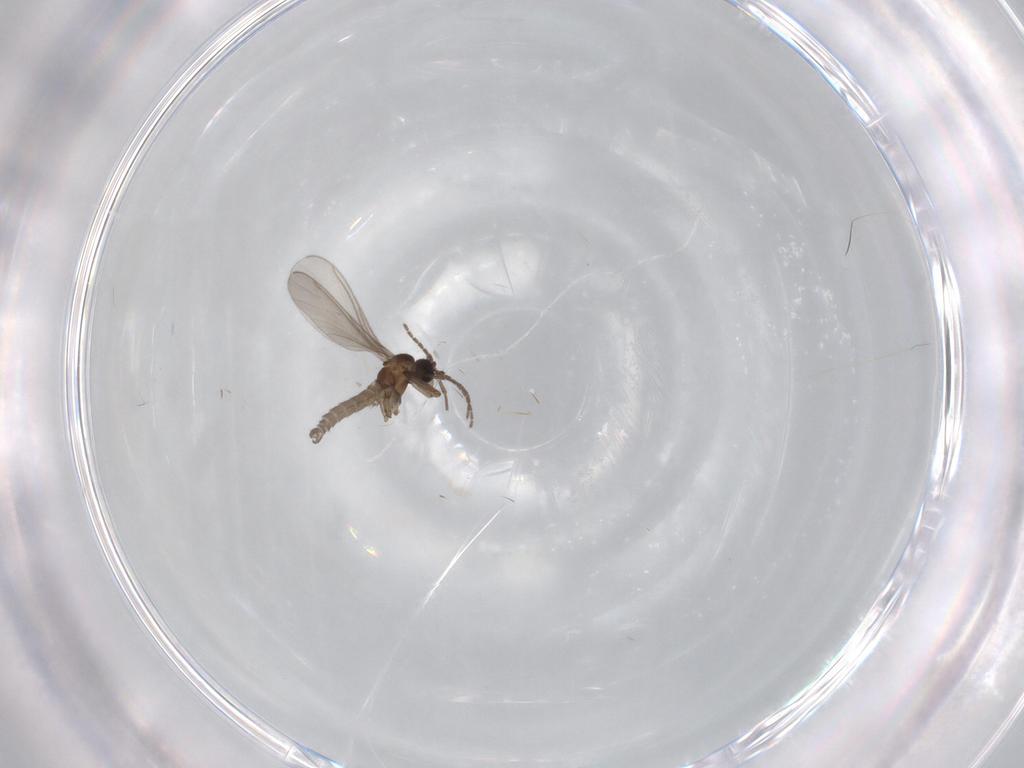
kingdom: Animalia
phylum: Arthropoda
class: Insecta
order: Diptera
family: Sciaridae
